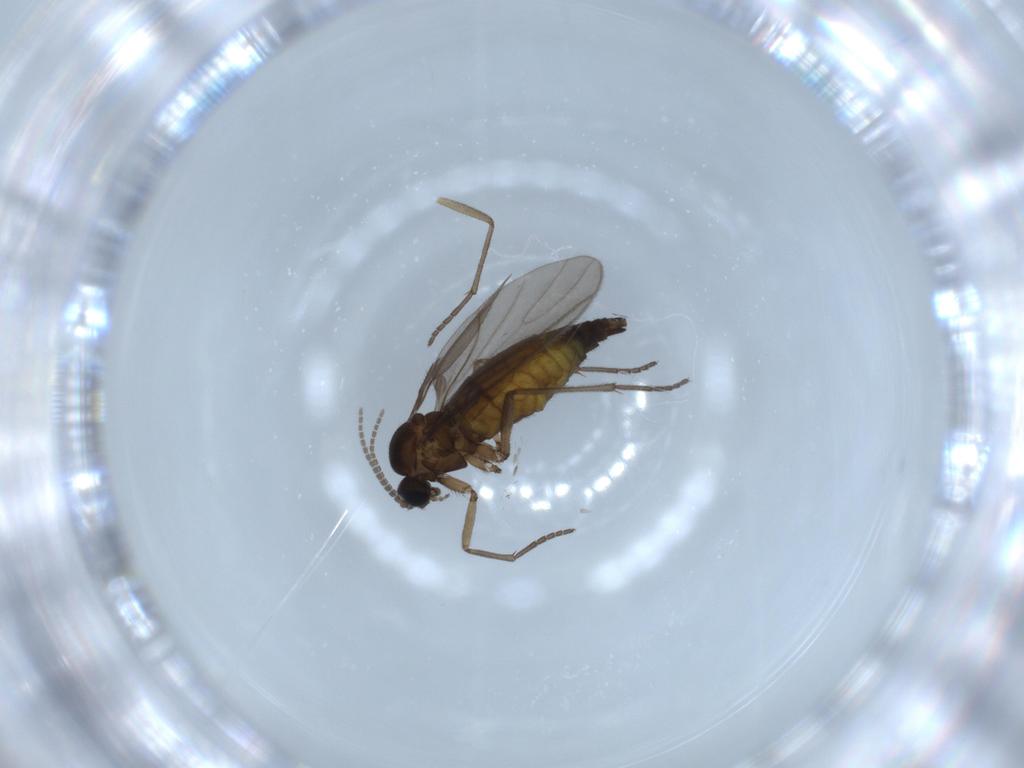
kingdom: Animalia
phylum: Arthropoda
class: Insecta
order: Diptera
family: Sciaridae
